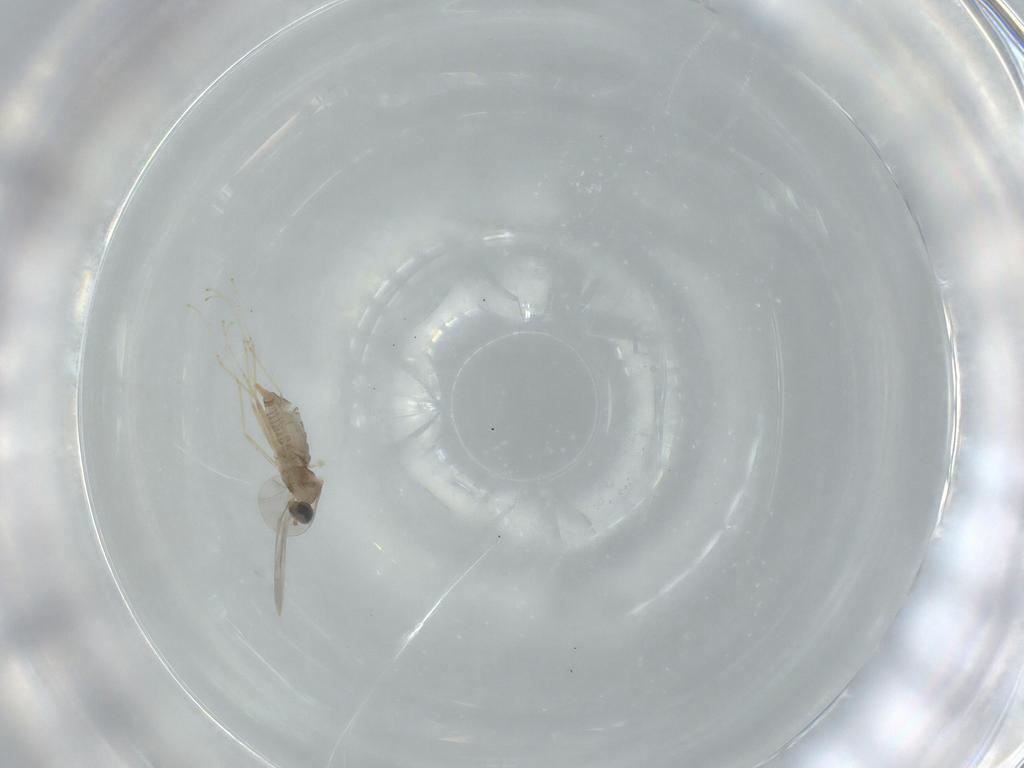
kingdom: Animalia
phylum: Arthropoda
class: Insecta
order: Diptera
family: Cecidomyiidae
